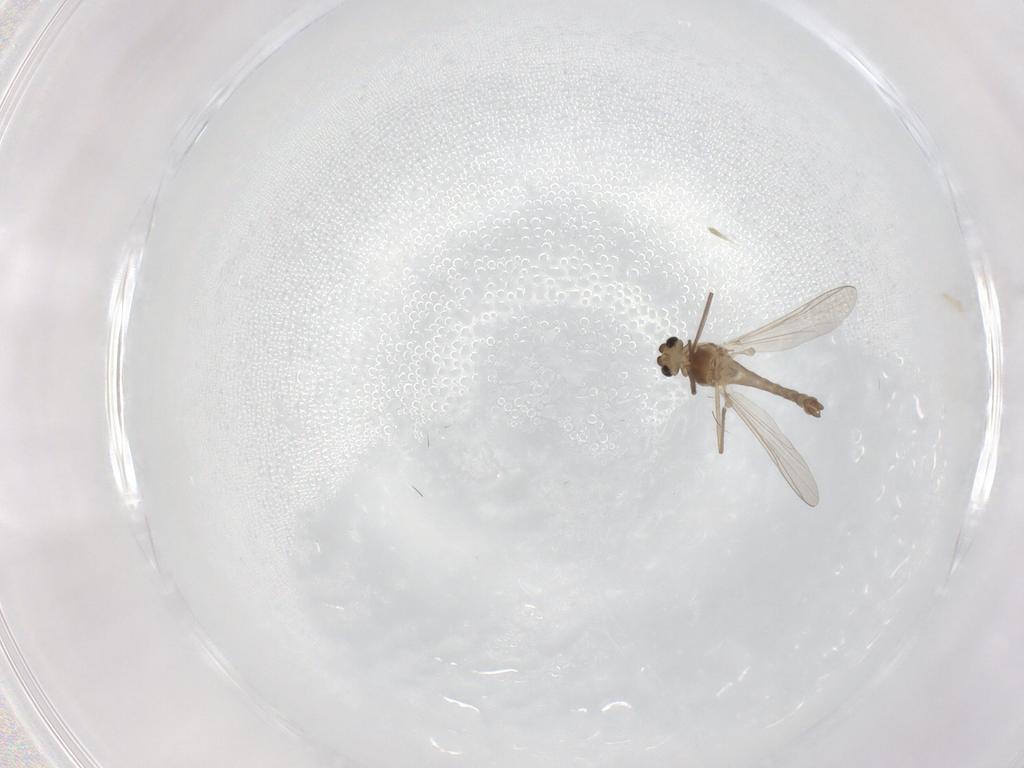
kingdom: Animalia
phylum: Arthropoda
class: Insecta
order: Diptera
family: Chironomidae
